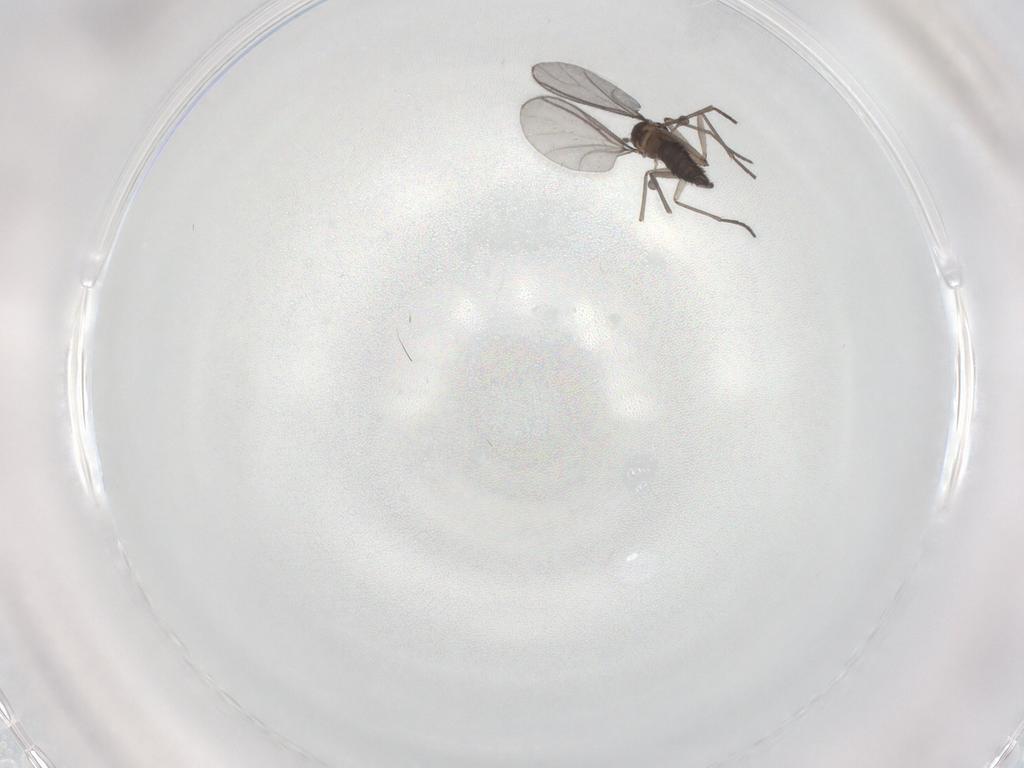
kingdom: Animalia
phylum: Arthropoda
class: Insecta
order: Diptera
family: Chironomidae
